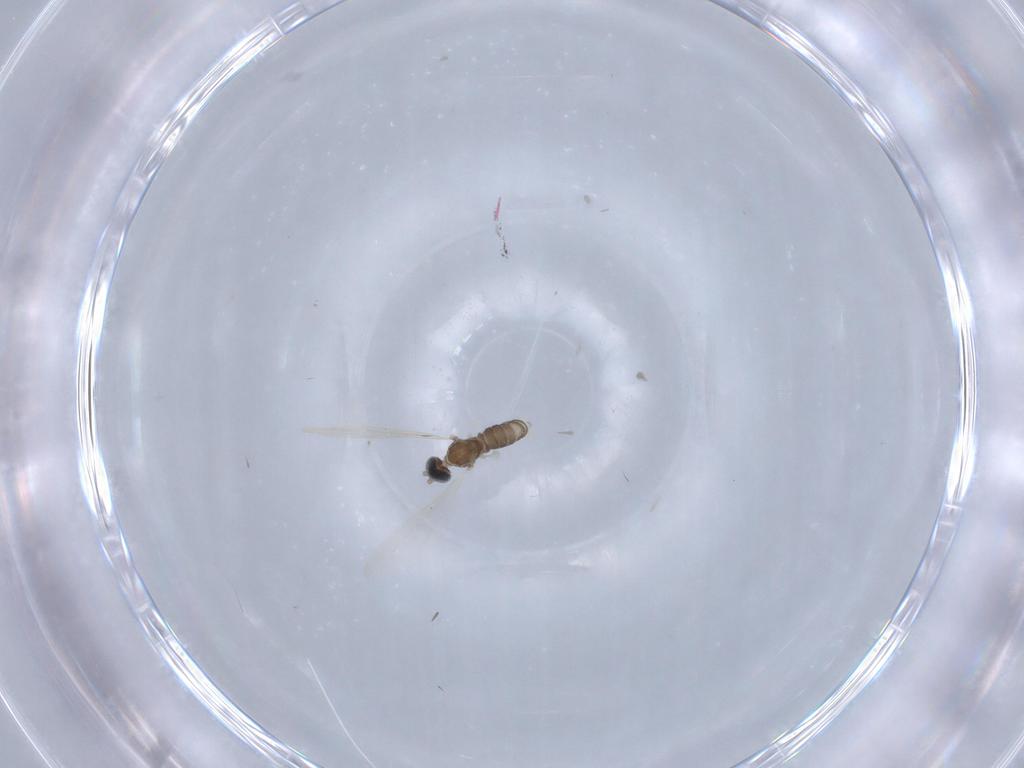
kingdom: Animalia
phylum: Arthropoda
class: Insecta
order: Diptera
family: Cecidomyiidae
